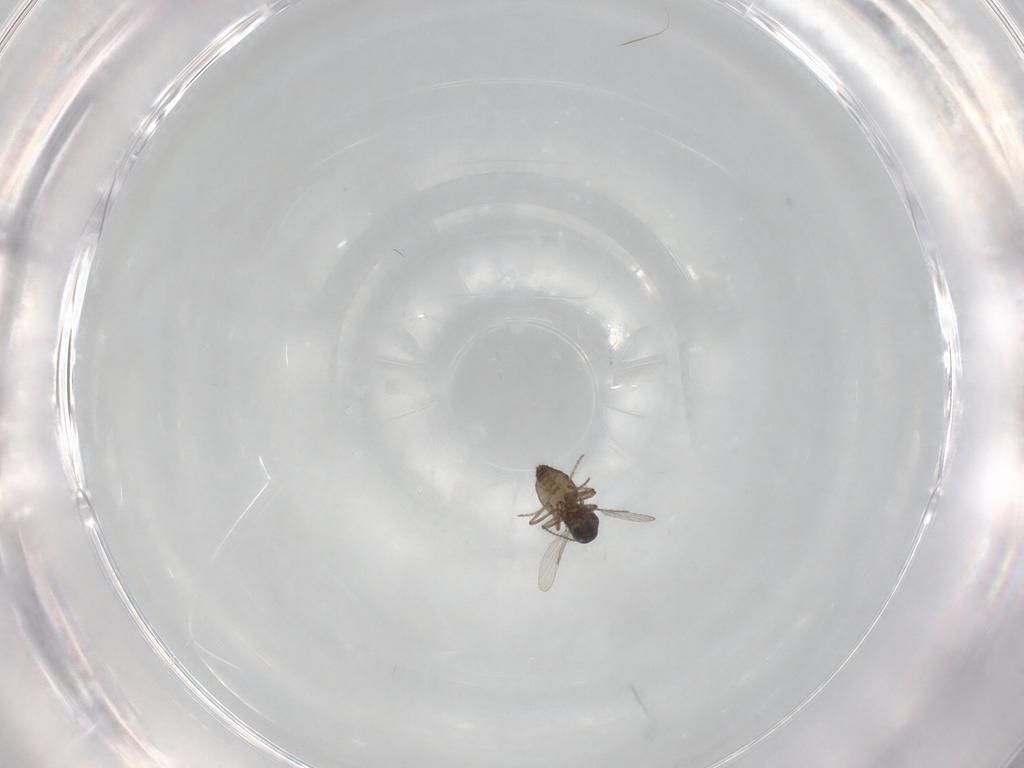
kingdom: Animalia
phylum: Arthropoda
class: Insecta
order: Diptera
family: Ceratopogonidae
